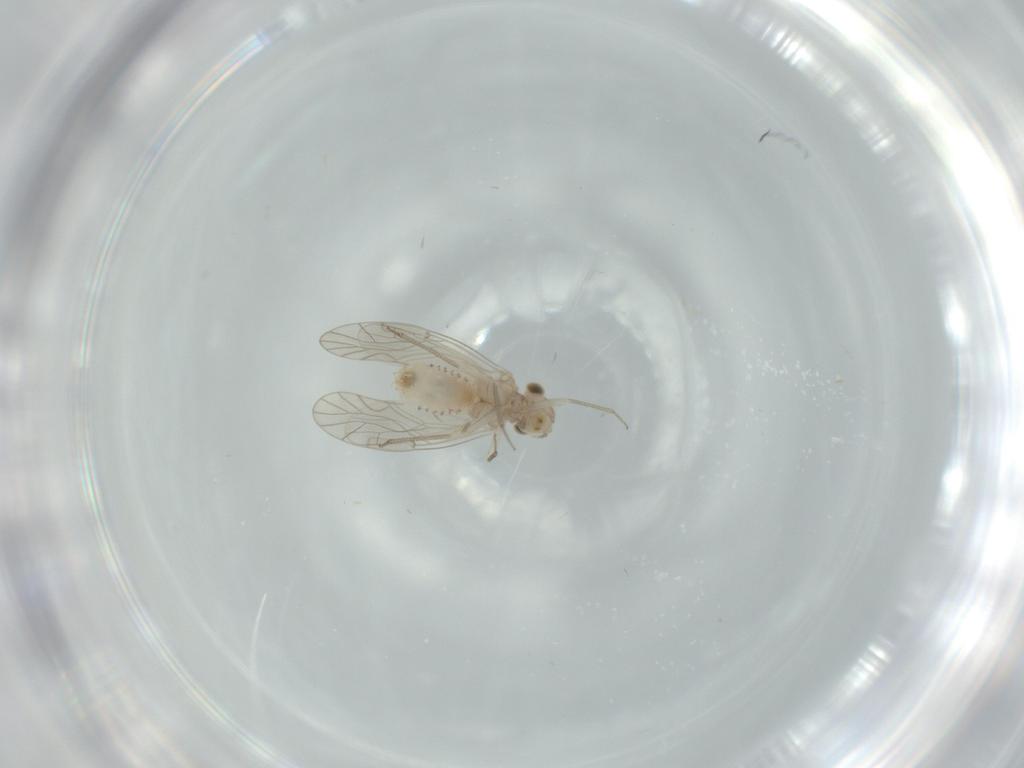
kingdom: Animalia
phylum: Arthropoda
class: Insecta
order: Psocodea
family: Lachesillidae
